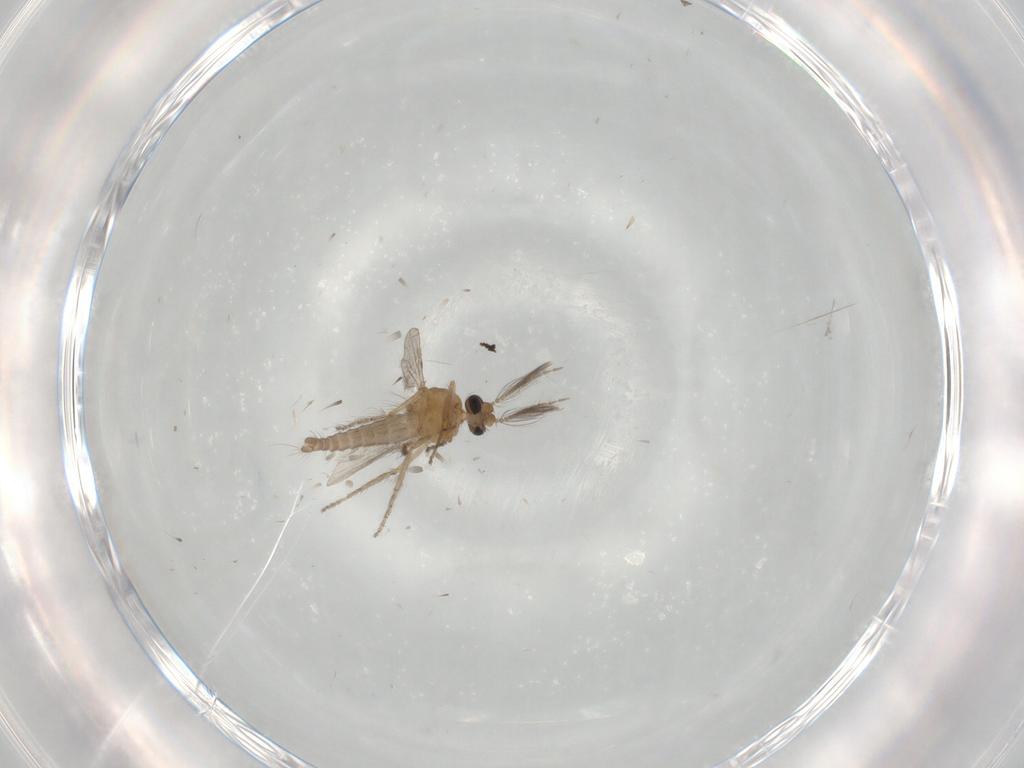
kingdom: Animalia
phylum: Arthropoda
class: Insecta
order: Diptera
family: Ceratopogonidae
